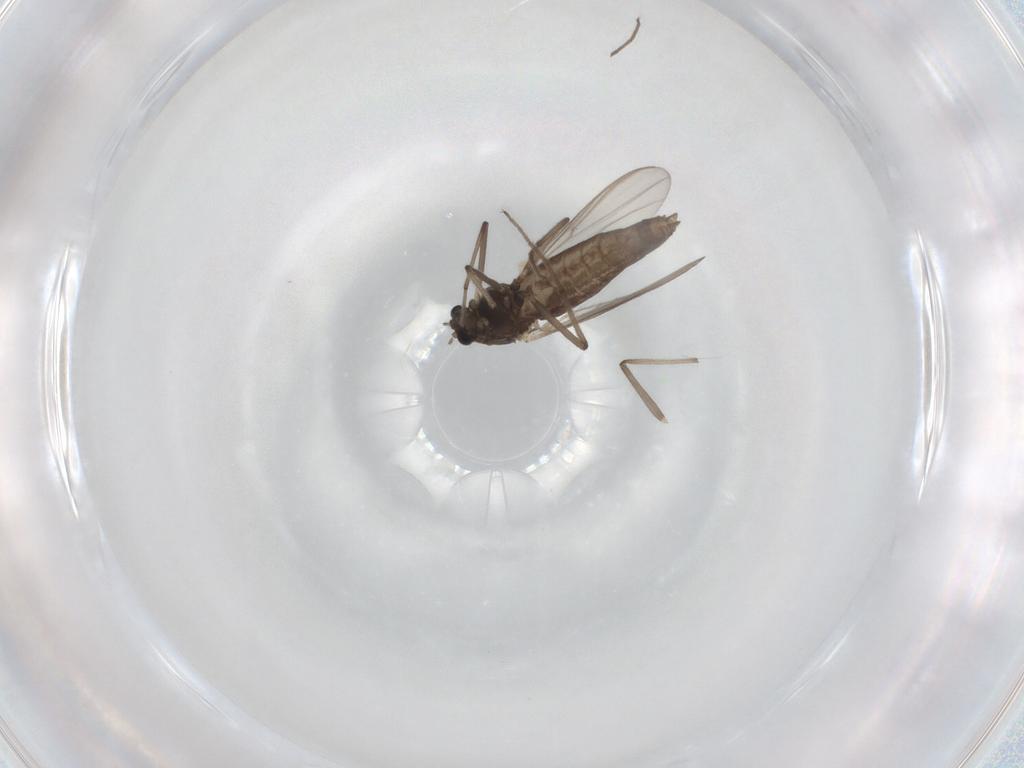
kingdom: Animalia
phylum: Arthropoda
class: Insecta
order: Diptera
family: Chironomidae
